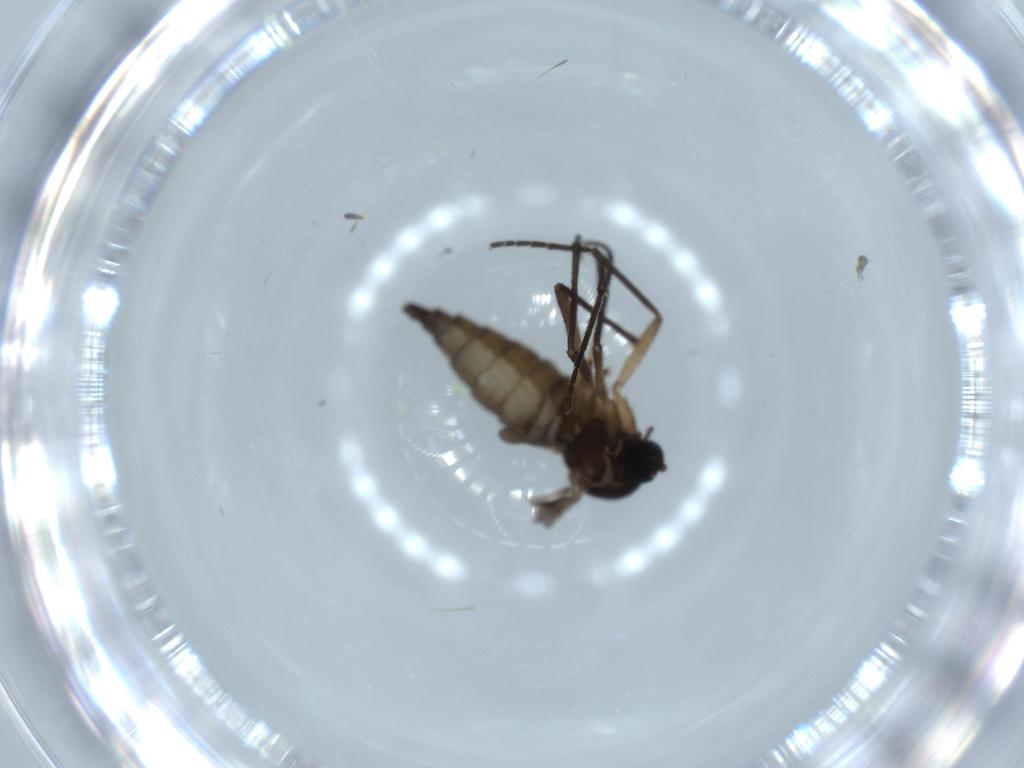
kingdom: Animalia
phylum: Arthropoda
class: Insecta
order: Diptera
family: Sciaridae
